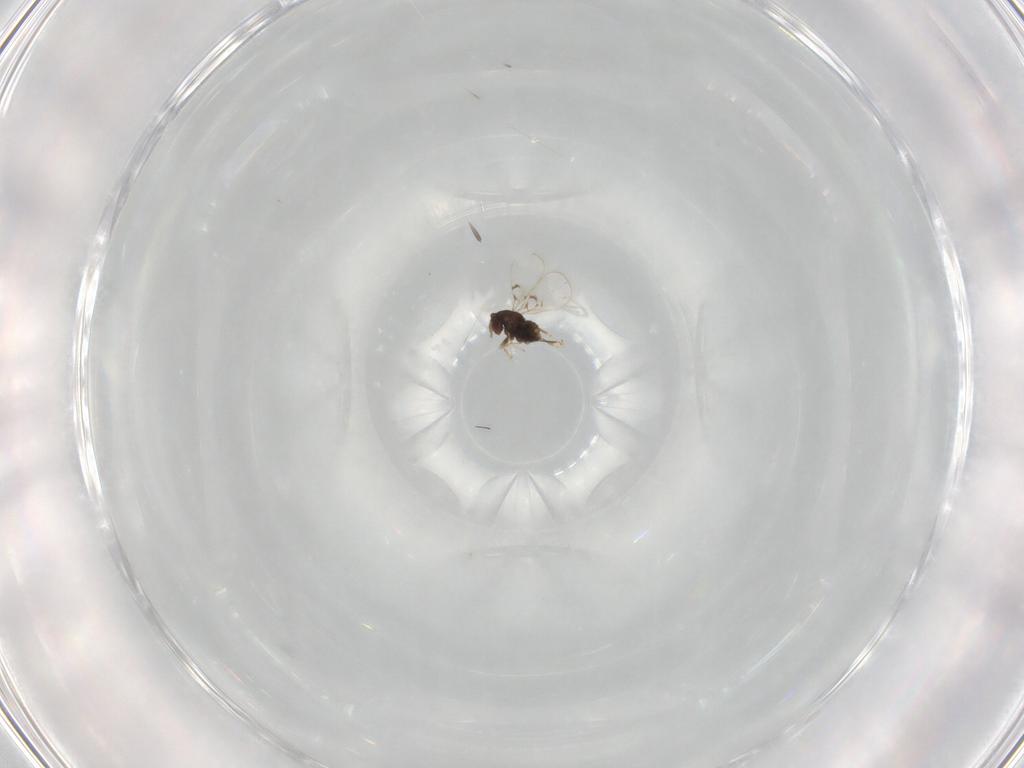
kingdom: Animalia
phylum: Arthropoda
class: Insecta
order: Hymenoptera
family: Trichogrammatidae
